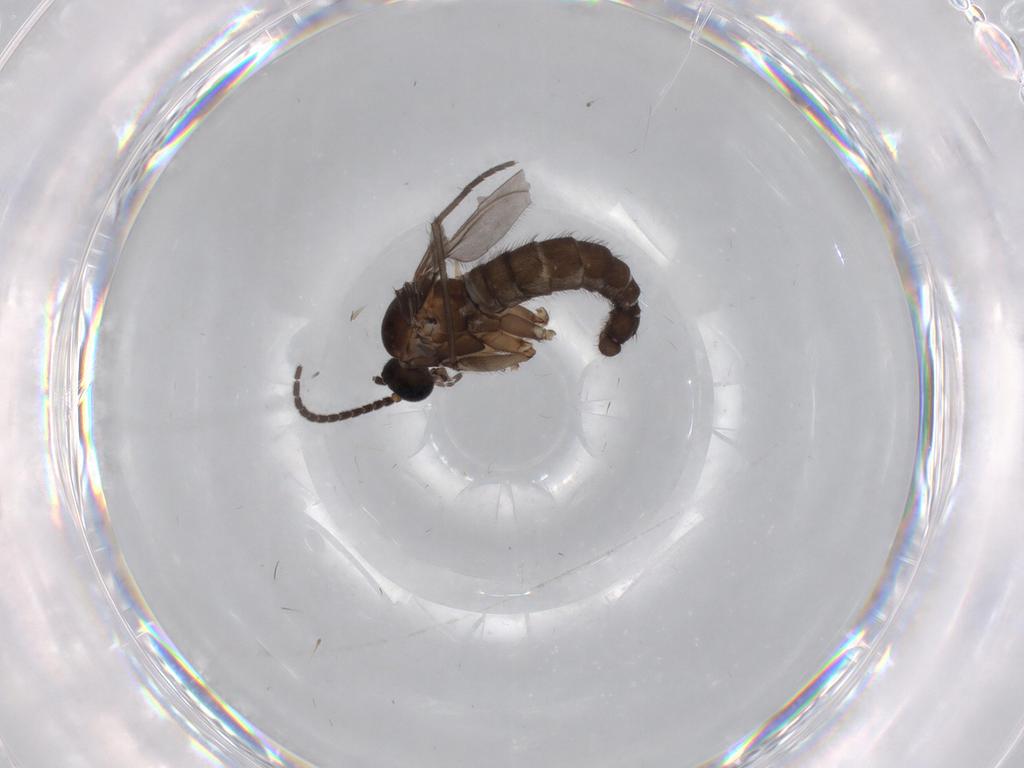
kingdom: Animalia
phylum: Arthropoda
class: Insecta
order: Diptera
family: Sciaridae
